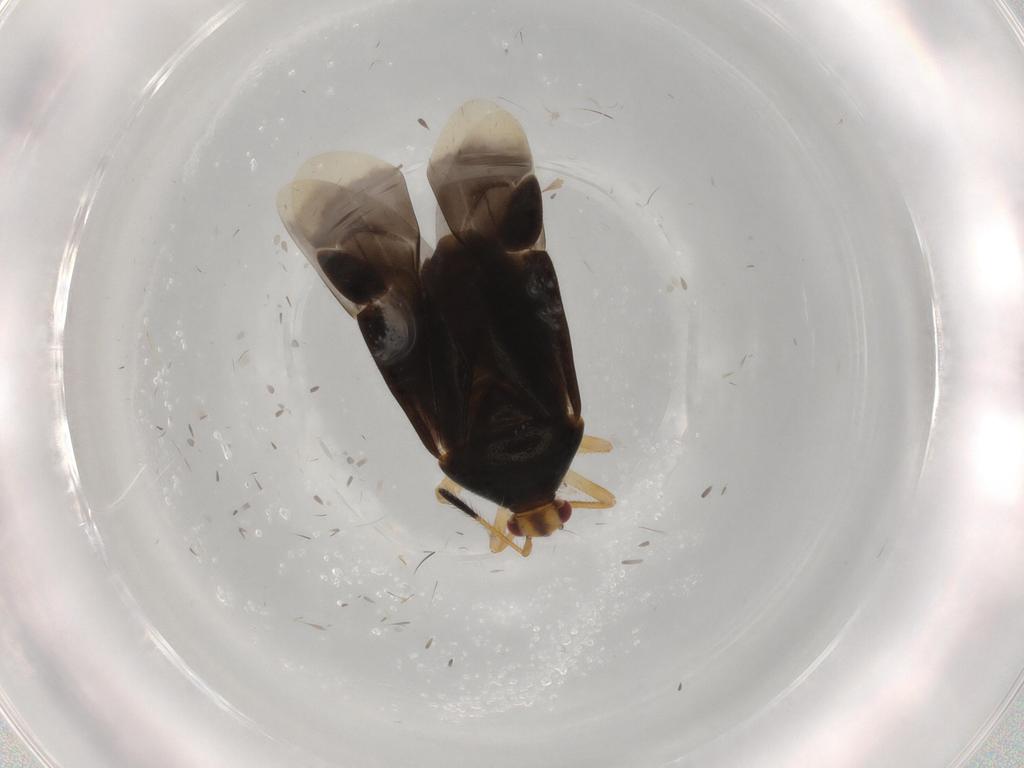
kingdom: Animalia
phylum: Arthropoda
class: Insecta
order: Hemiptera
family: Miridae
